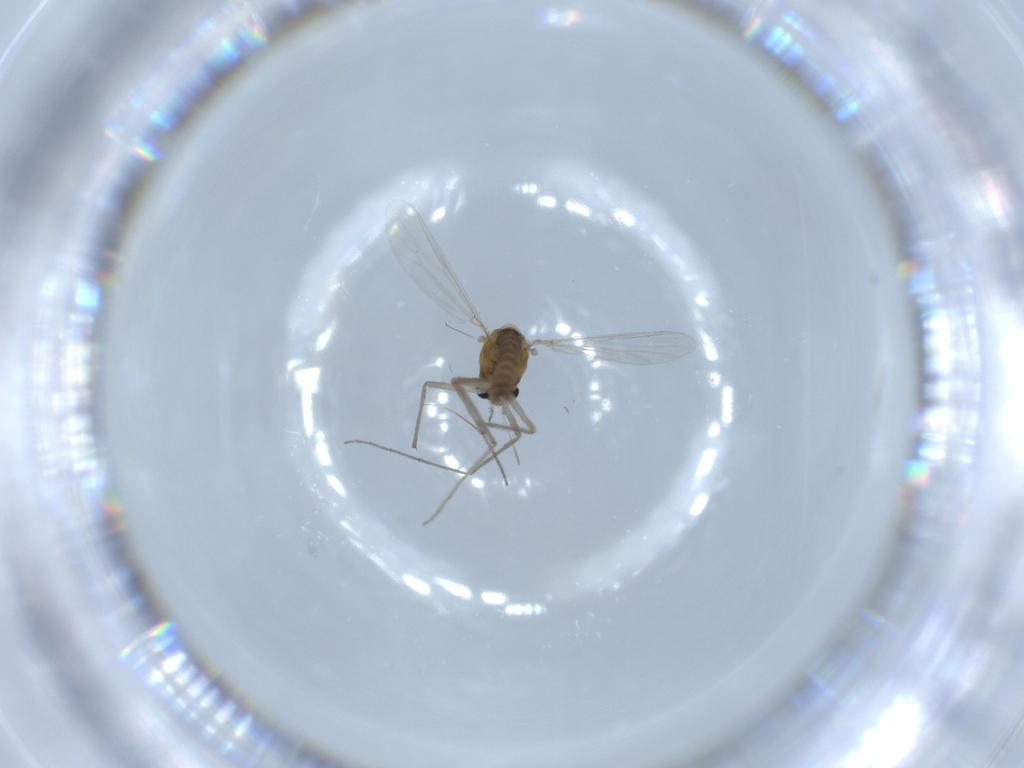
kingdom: Animalia
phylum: Arthropoda
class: Insecta
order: Diptera
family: Chironomidae
